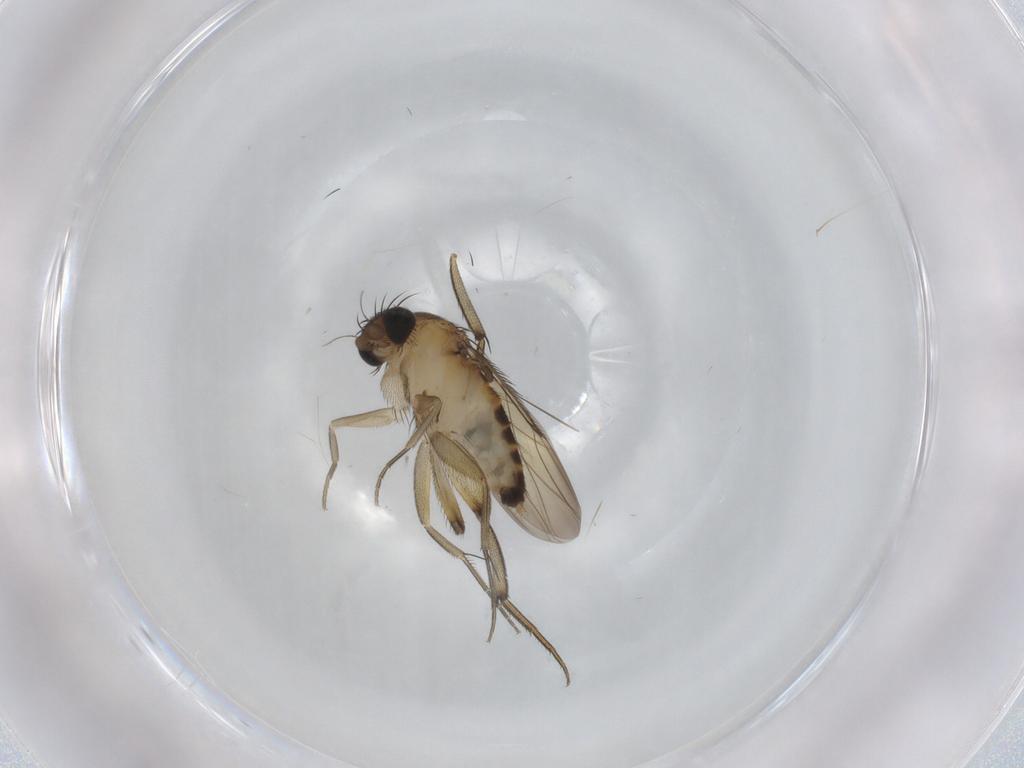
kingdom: Animalia
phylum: Arthropoda
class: Insecta
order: Diptera
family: Phoridae
